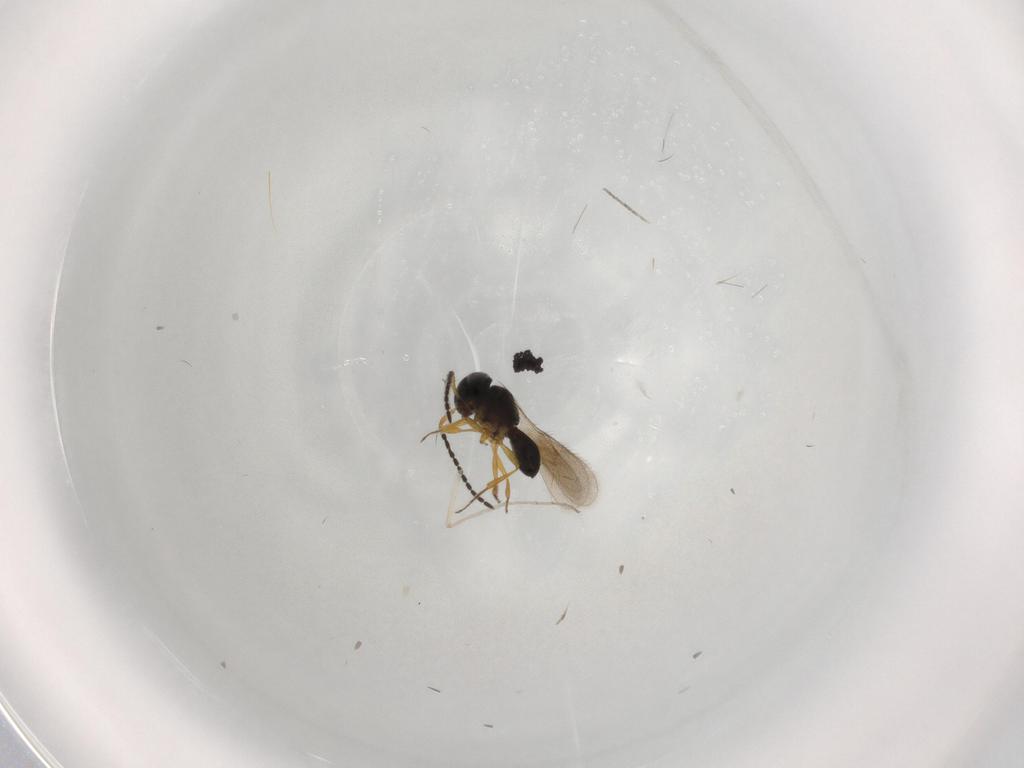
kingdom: Animalia
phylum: Arthropoda
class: Insecta
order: Hymenoptera
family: Scelionidae
